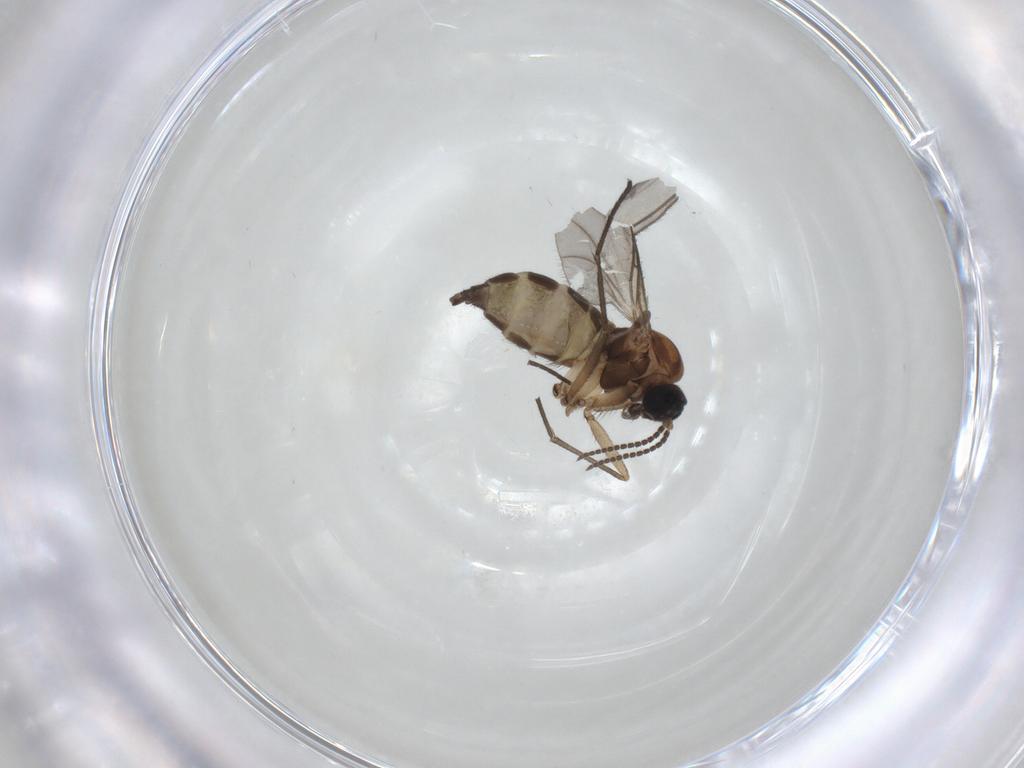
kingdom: Animalia
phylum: Arthropoda
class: Insecta
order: Diptera
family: Sciaridae
